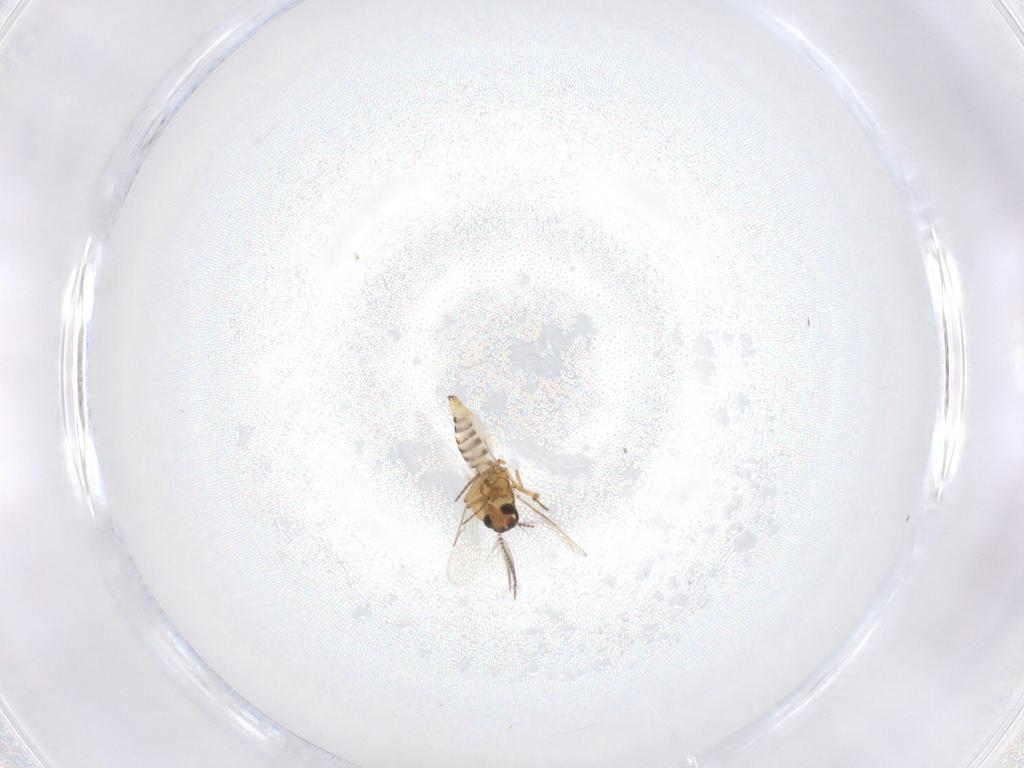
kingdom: Animalia
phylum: Arthropoda
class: Insecta
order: Diptera
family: Ceratopogonidae
